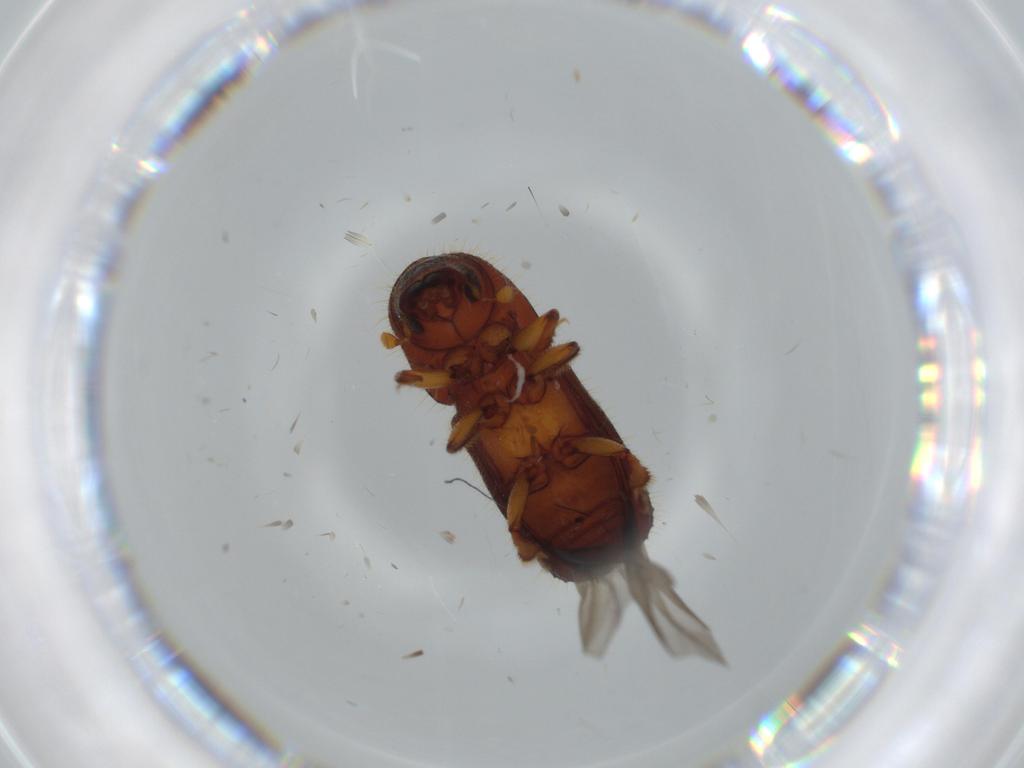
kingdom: Animalia
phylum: Arthropoda
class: Insecta
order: Coleoptera
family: Curculionidae
